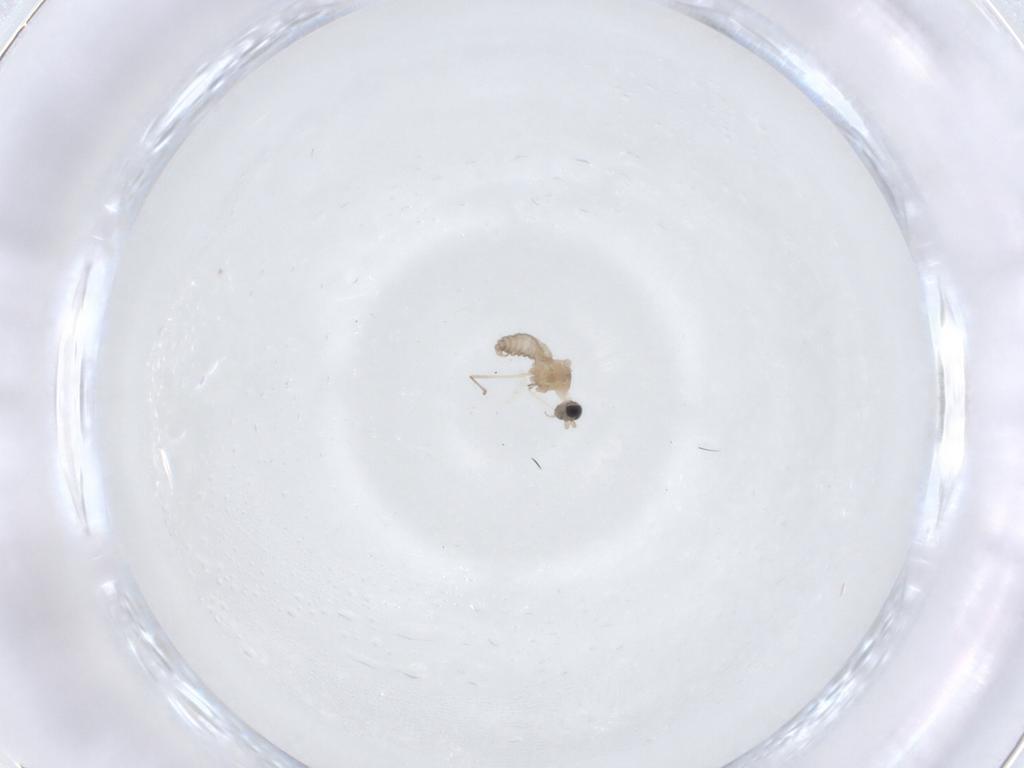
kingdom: Animalia
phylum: Arthropoda
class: Insecta
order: Diptera
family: Cecidomyiidae
